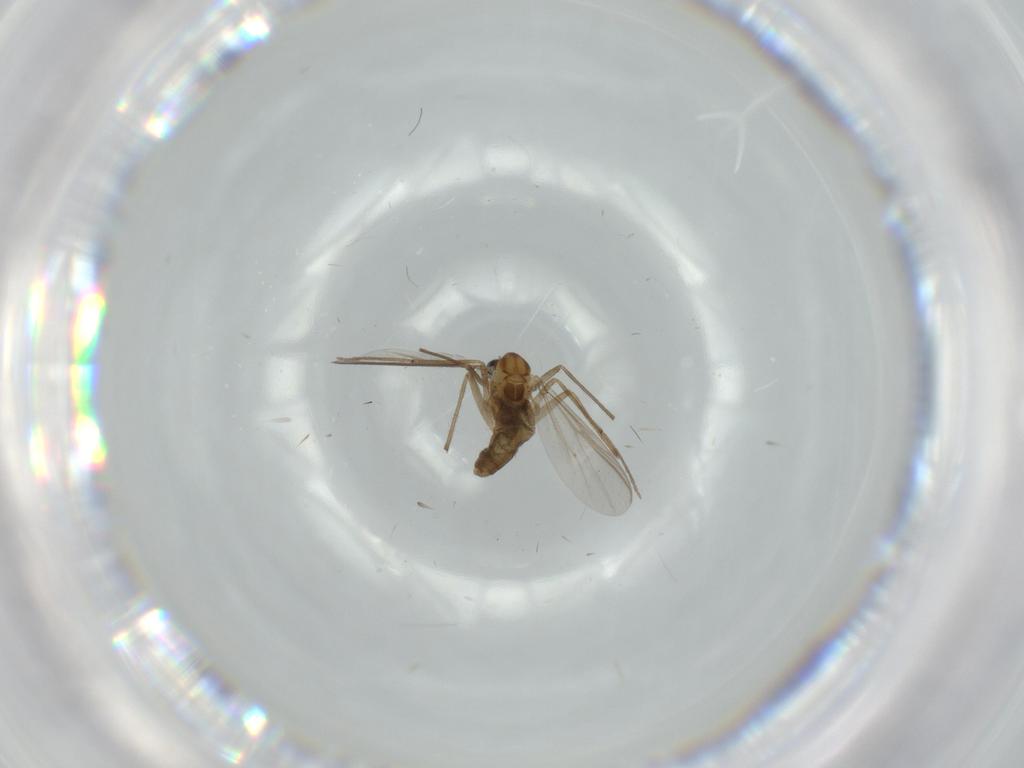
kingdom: Animalia
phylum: Arthropoda
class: Insecta
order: Diptera
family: Chironomidae
